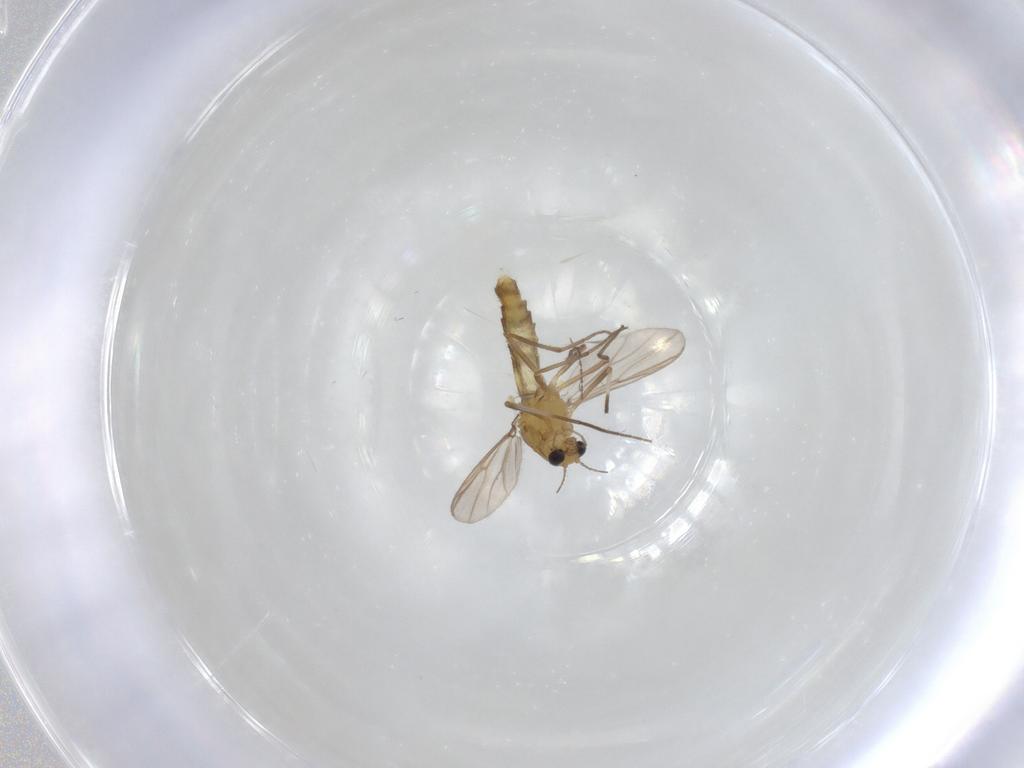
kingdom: Animalia
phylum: Arthropoda
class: Insecta
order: Diptera
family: Chironomidae
